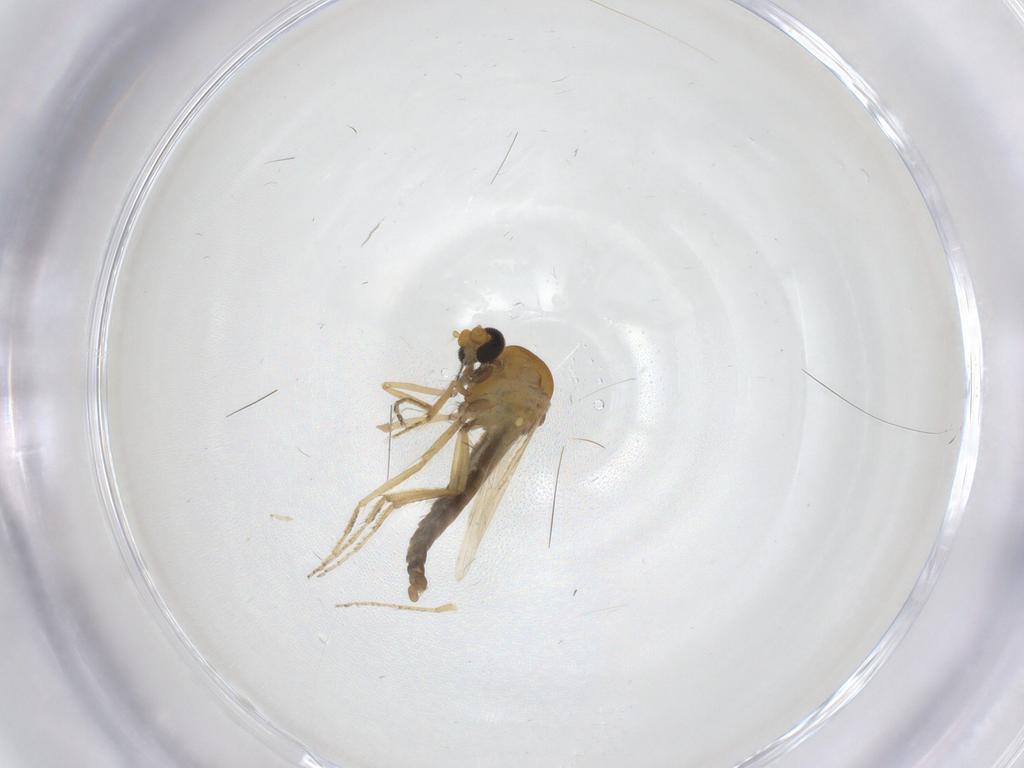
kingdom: Animalia
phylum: Arthropoda
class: Insecta
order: Diptera
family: Ceratopogonidae
